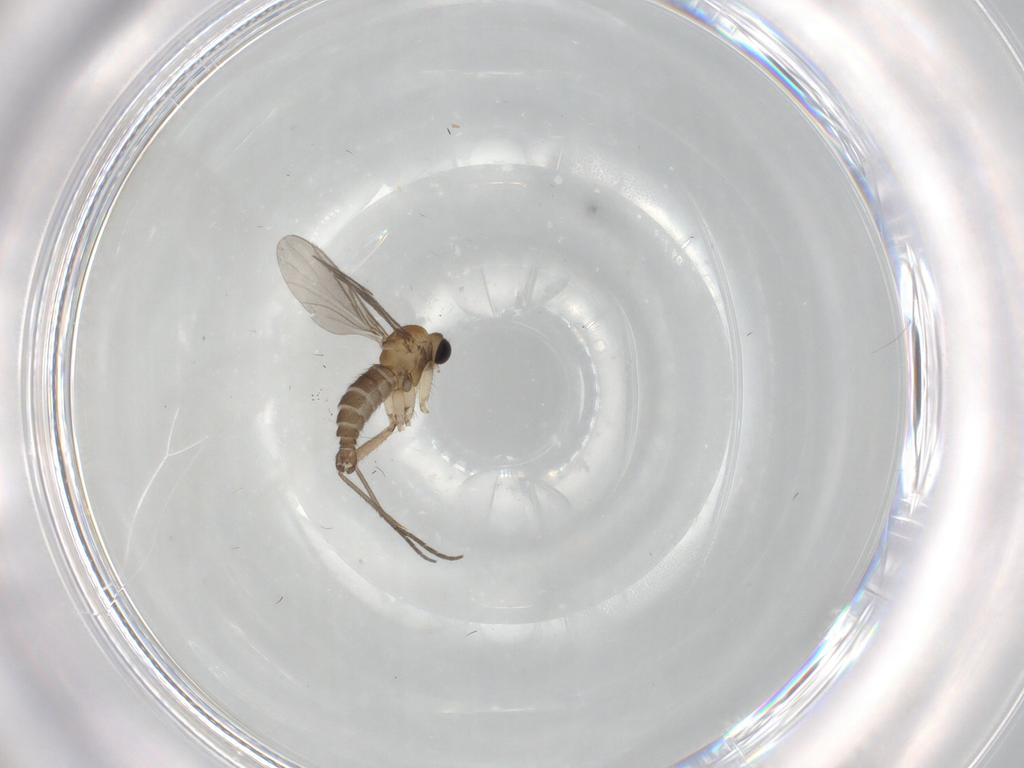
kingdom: Animalia
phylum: Arthropoda
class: Insecta
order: Diptera
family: Sciaridae
